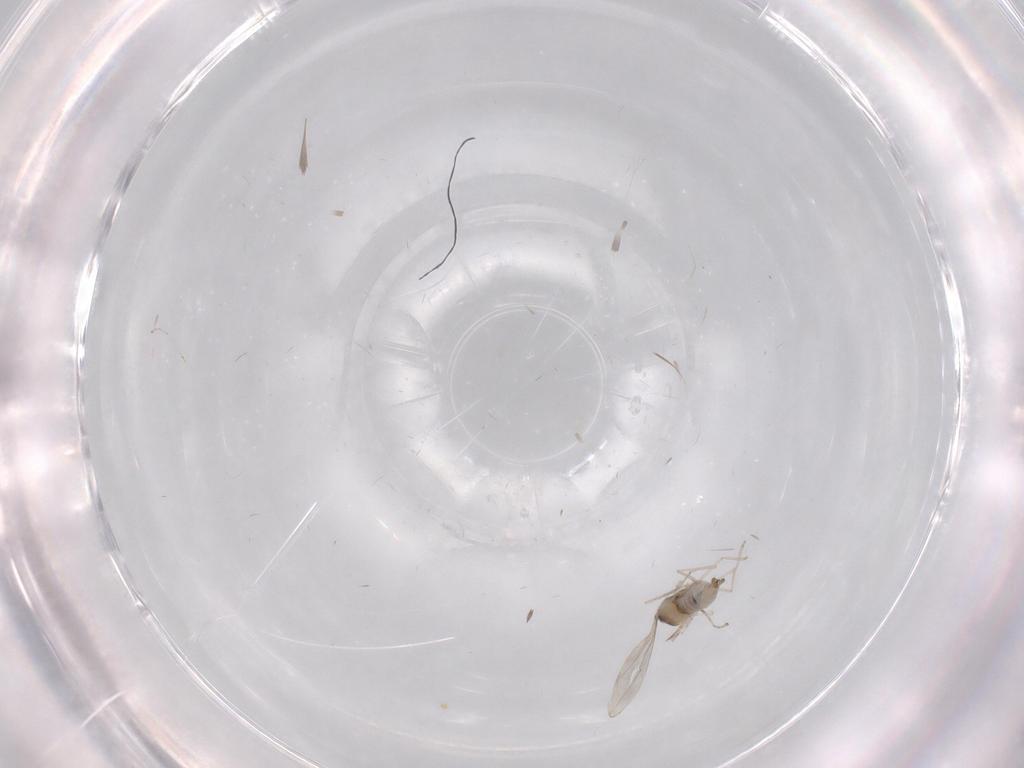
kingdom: Animalia
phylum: Arthropoda
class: Insecta
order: Diptera
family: Cecidomyiidae
